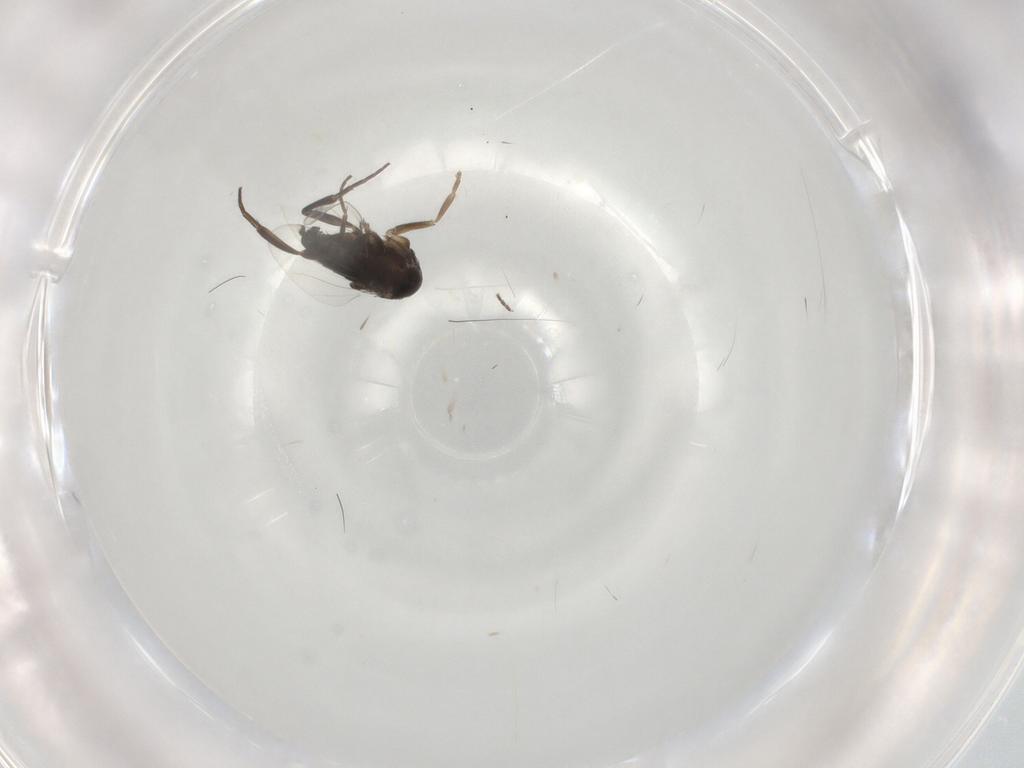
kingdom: Animalia
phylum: Arthropoda
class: Insecta
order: Diptera
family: Phoridae
